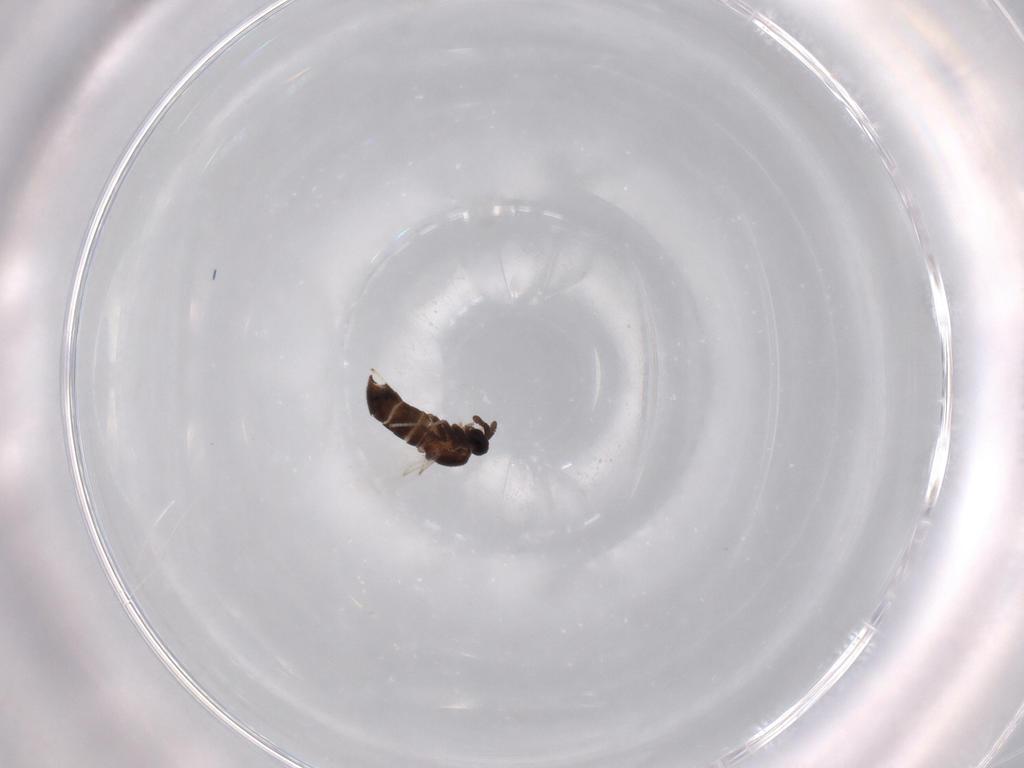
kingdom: Animalia
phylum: Arthropoda
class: Insecta
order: Diptera
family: Scatopsidae
